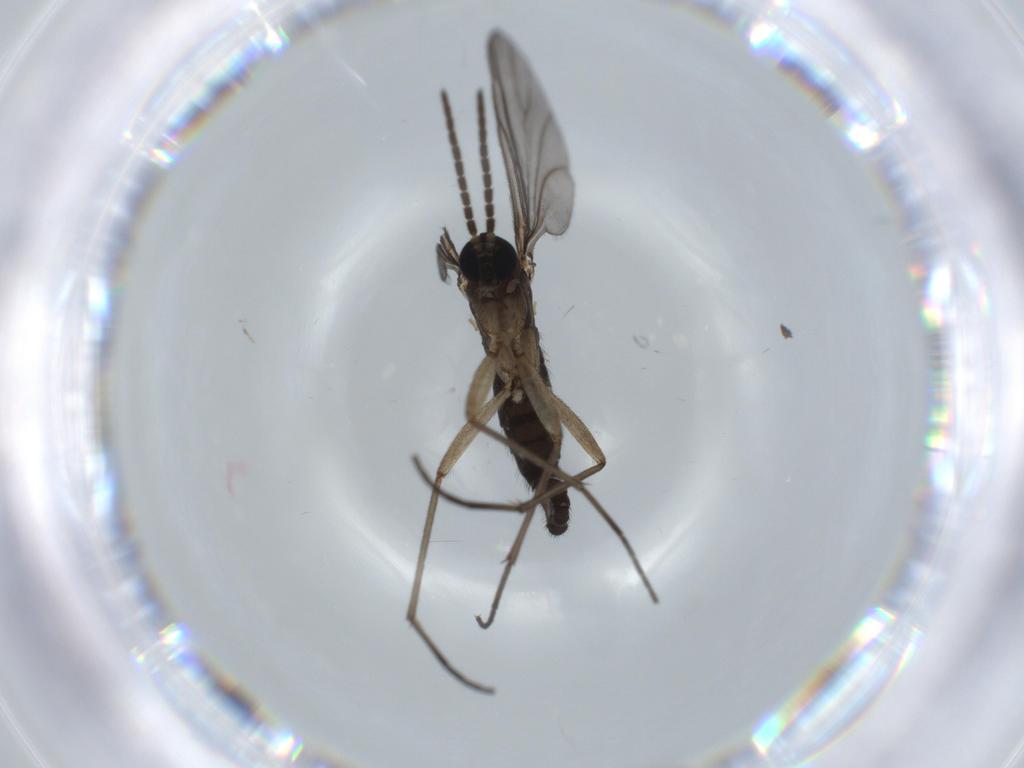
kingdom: Animalia
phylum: Arthropoda
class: Insecta
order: Diptera
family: Sciaridae
